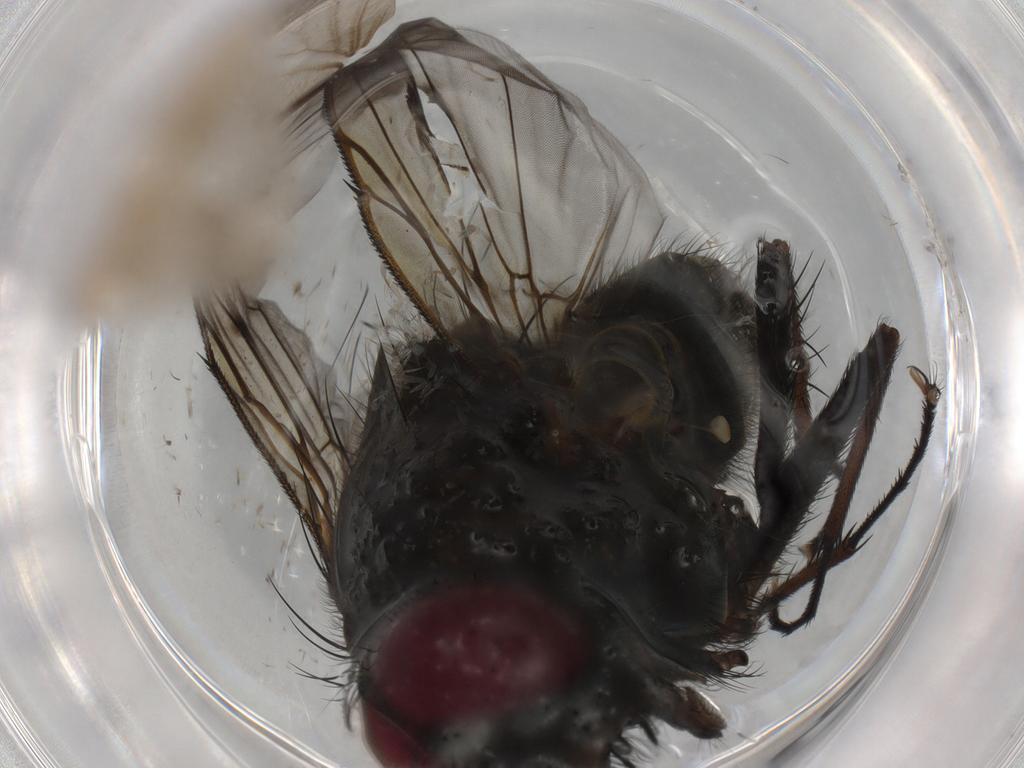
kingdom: Animalia
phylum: Arthropoda
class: Insecta
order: Diptera
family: Muscidae
